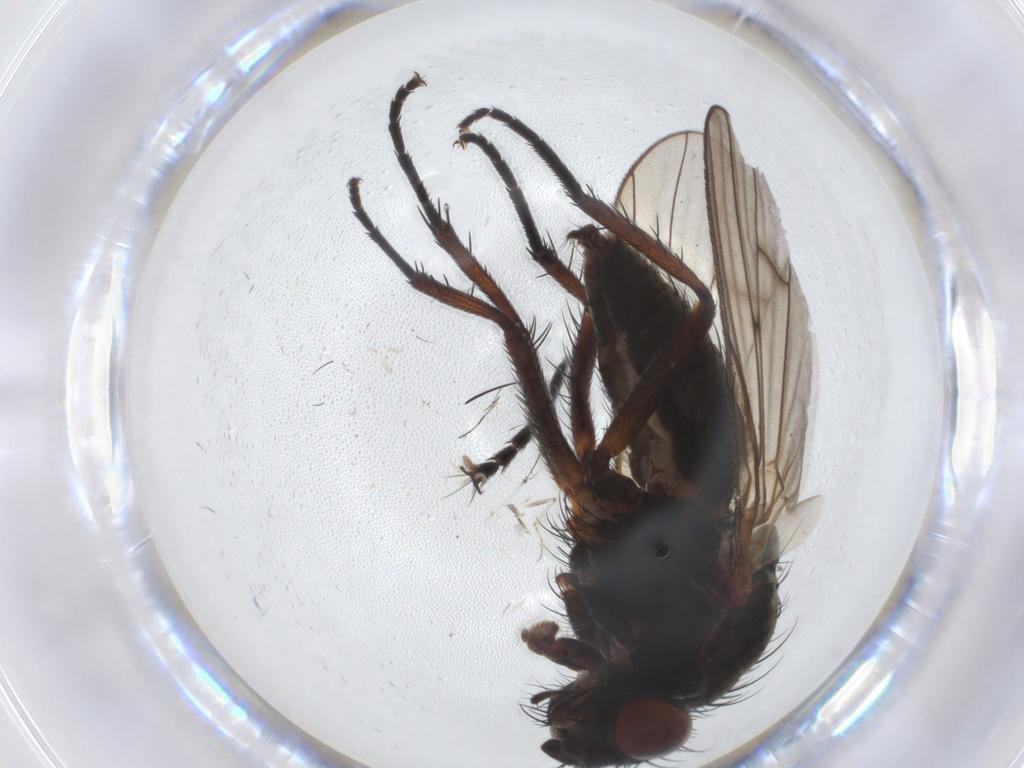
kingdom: Animalia
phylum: Arthropoda
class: Insecta
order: Diptera
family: Anthomyiidae
